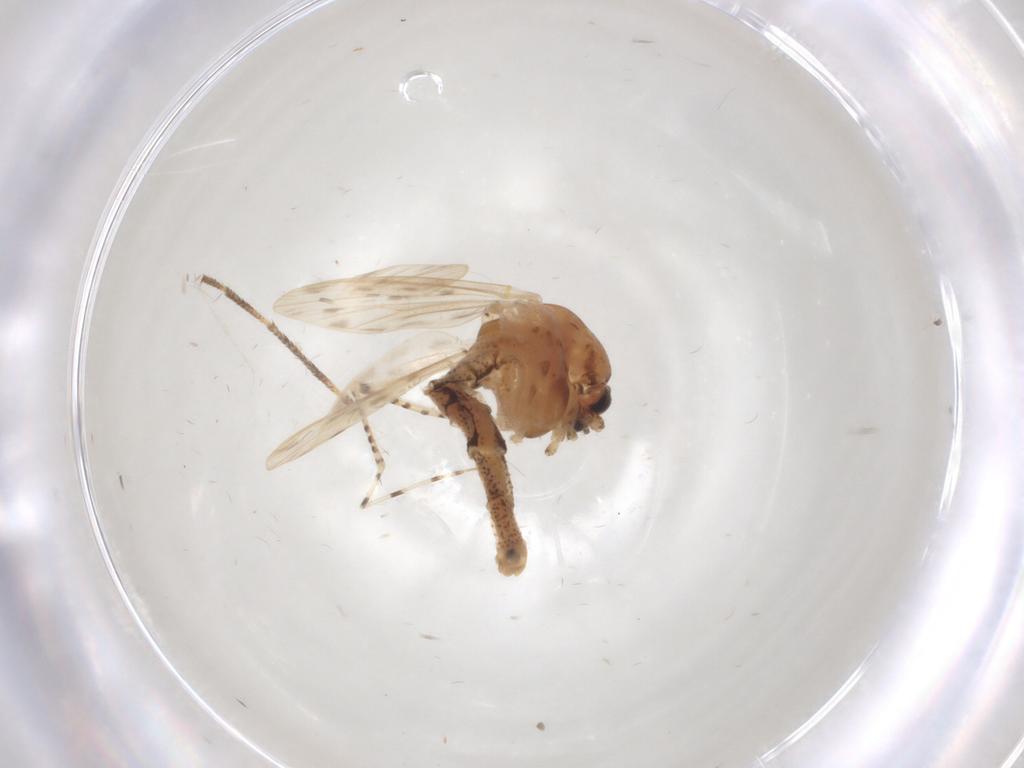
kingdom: Animalia
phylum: Arthropoda
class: Insecta
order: Diptera
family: Chaoboridae
